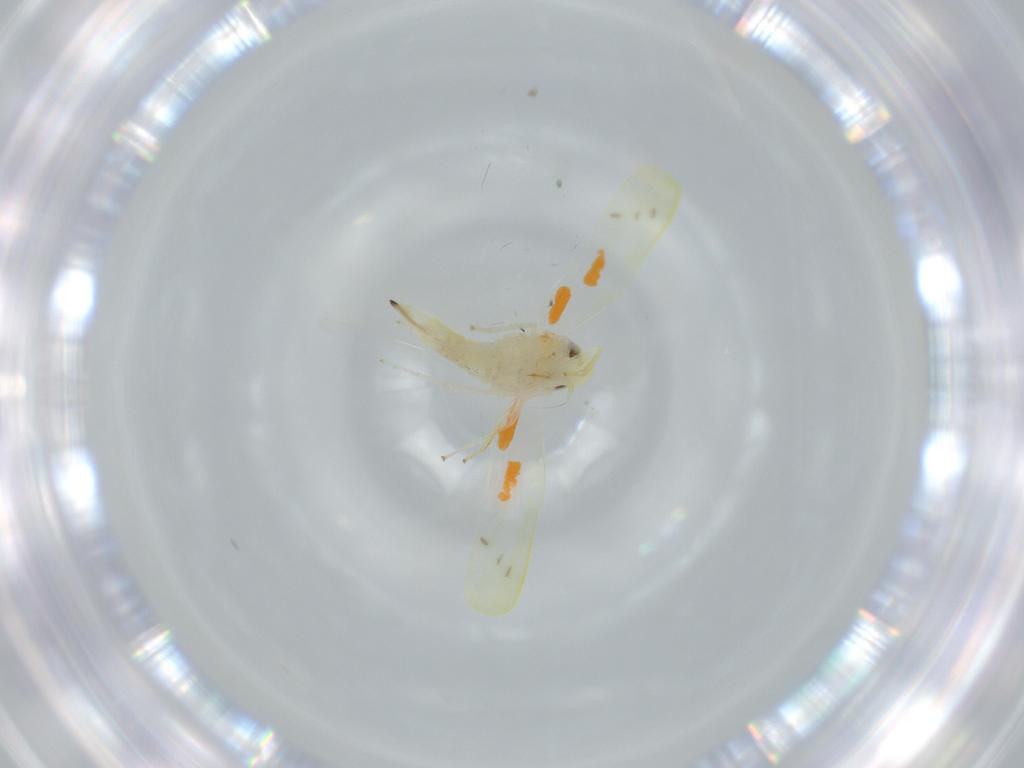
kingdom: Animalia
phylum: Arthropoda
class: Insecta
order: Hemiptera
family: Cicadellidae
